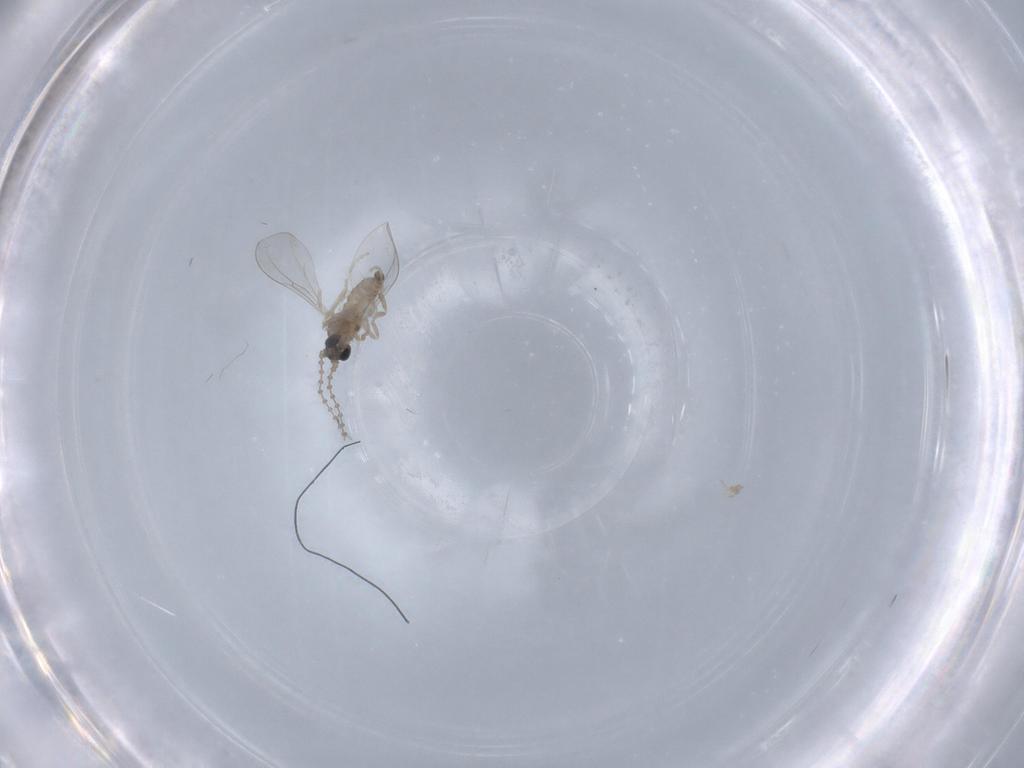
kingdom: Animalia
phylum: Arthropoda
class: Insecta
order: Diptera
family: Cecidomyiidae
